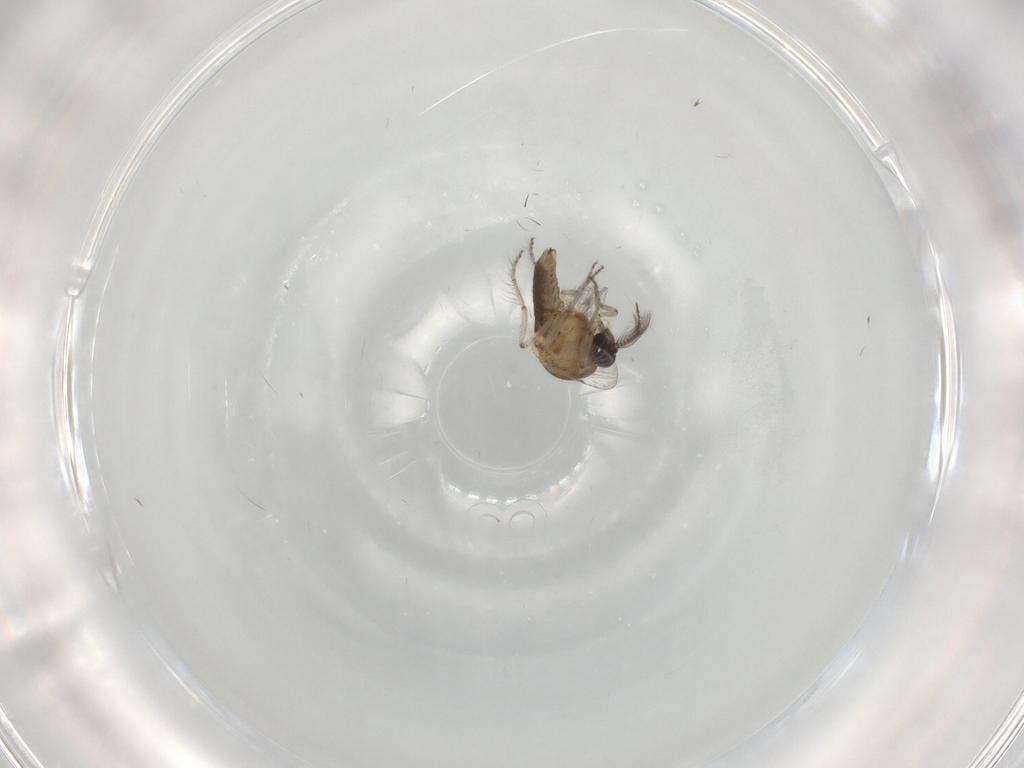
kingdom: Animalia
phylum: Arthropoda
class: Insecta
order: Diptera
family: Ceratopogonidae
